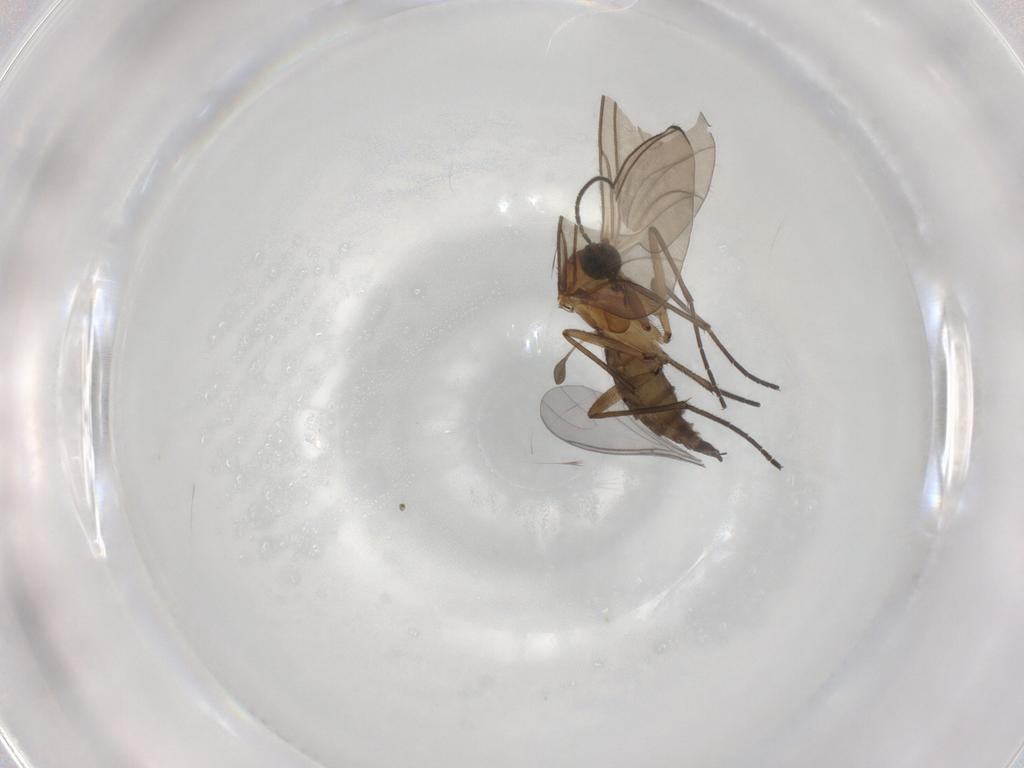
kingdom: Animalia
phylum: Arthropoda
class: Insecta
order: Diptera
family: Sciaridae
